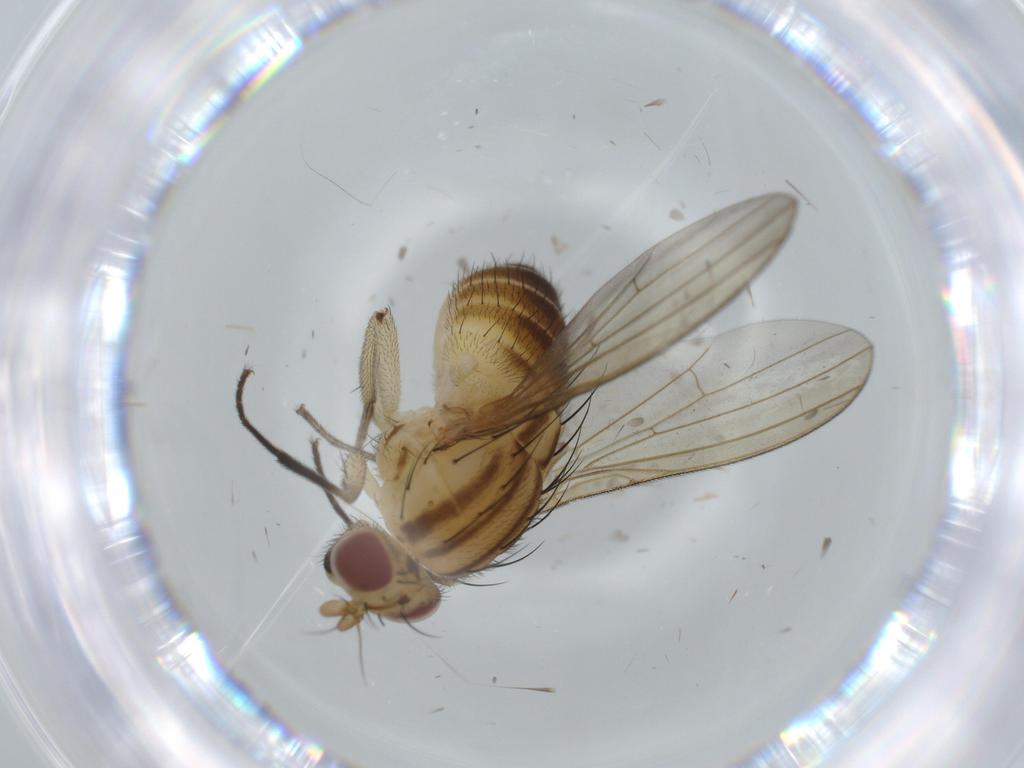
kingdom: Animalia
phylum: Arthropoda
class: Insecta
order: Diptera
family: Lauxaniidae
